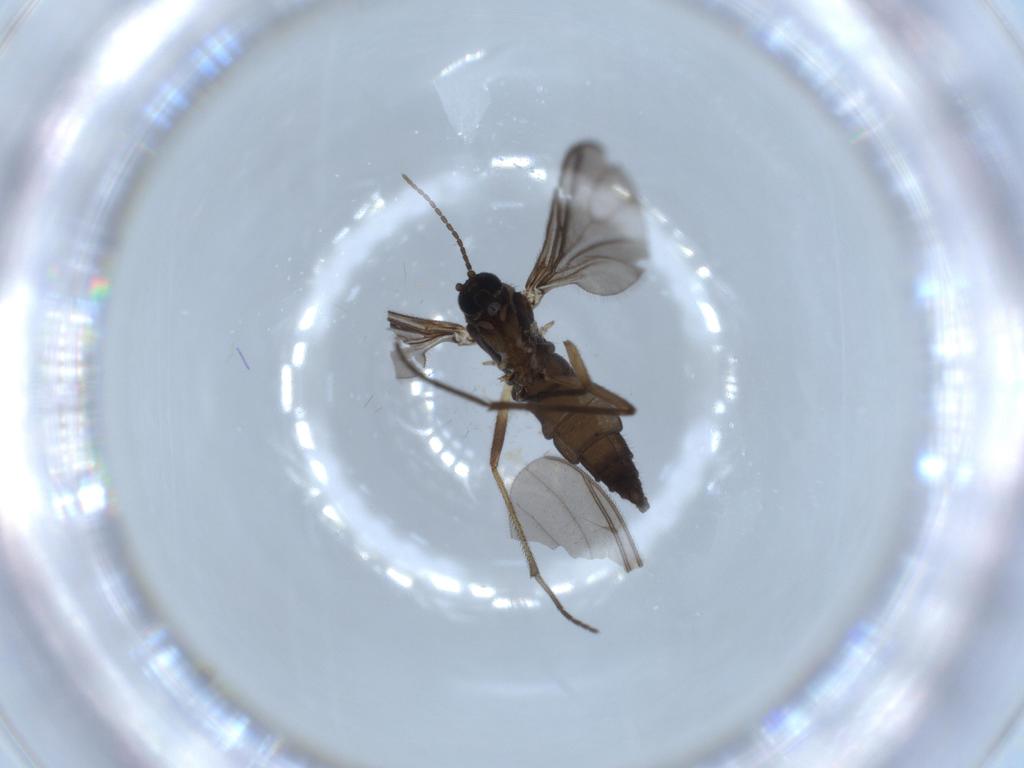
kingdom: Animalia
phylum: Arthropoda
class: Insecta
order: Diptera
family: Sciaridae
